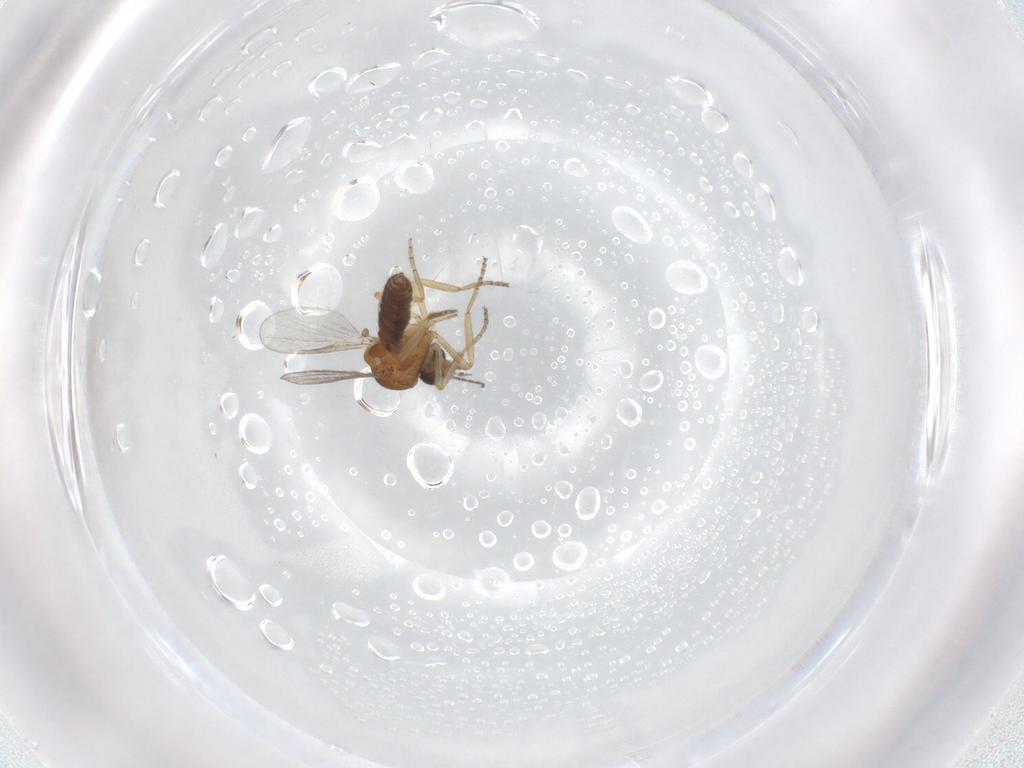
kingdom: Animalia
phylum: Arthropoda
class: Insecta
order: Diptera
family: Ceratopogonidae
